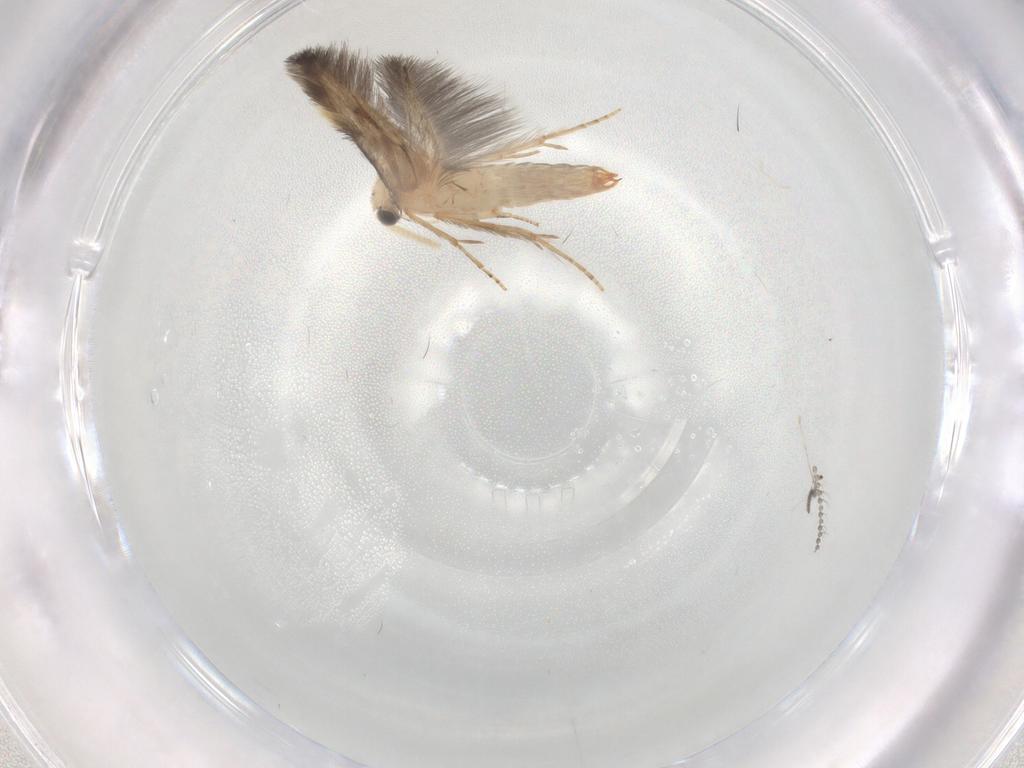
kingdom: Animalia
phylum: Arthropoda
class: Insecta
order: Trichoptera
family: Hydroptilidae
